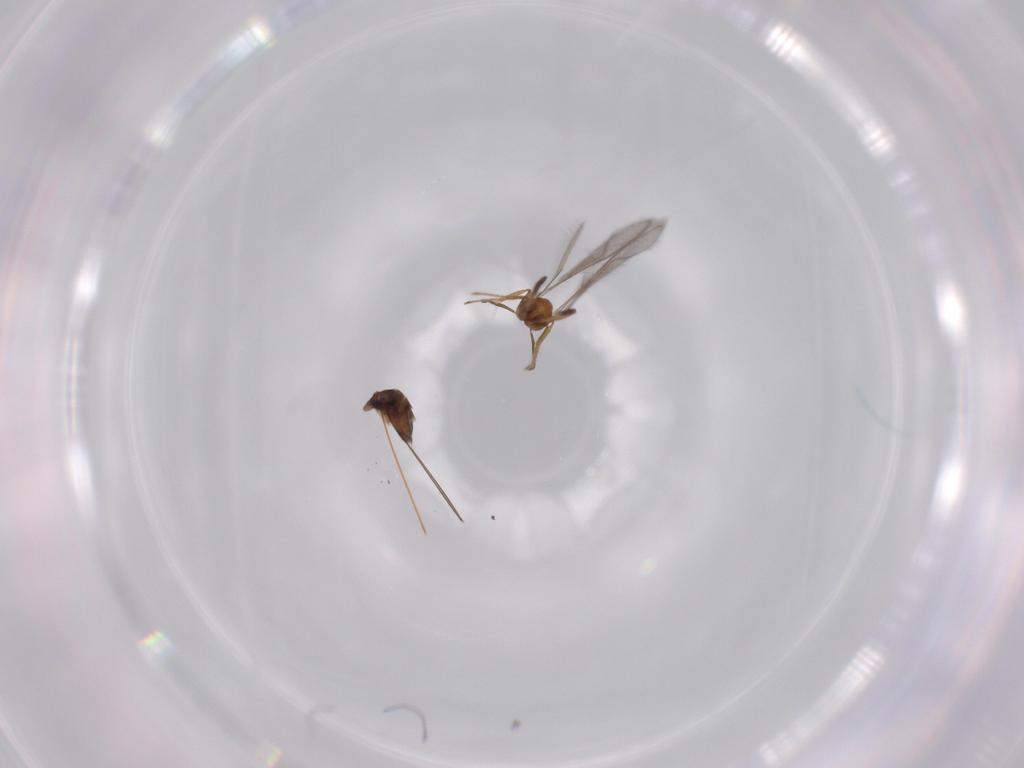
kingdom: Animalia
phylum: Arthropoda
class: Insecta
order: Hymenoptera
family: Mymaridae
